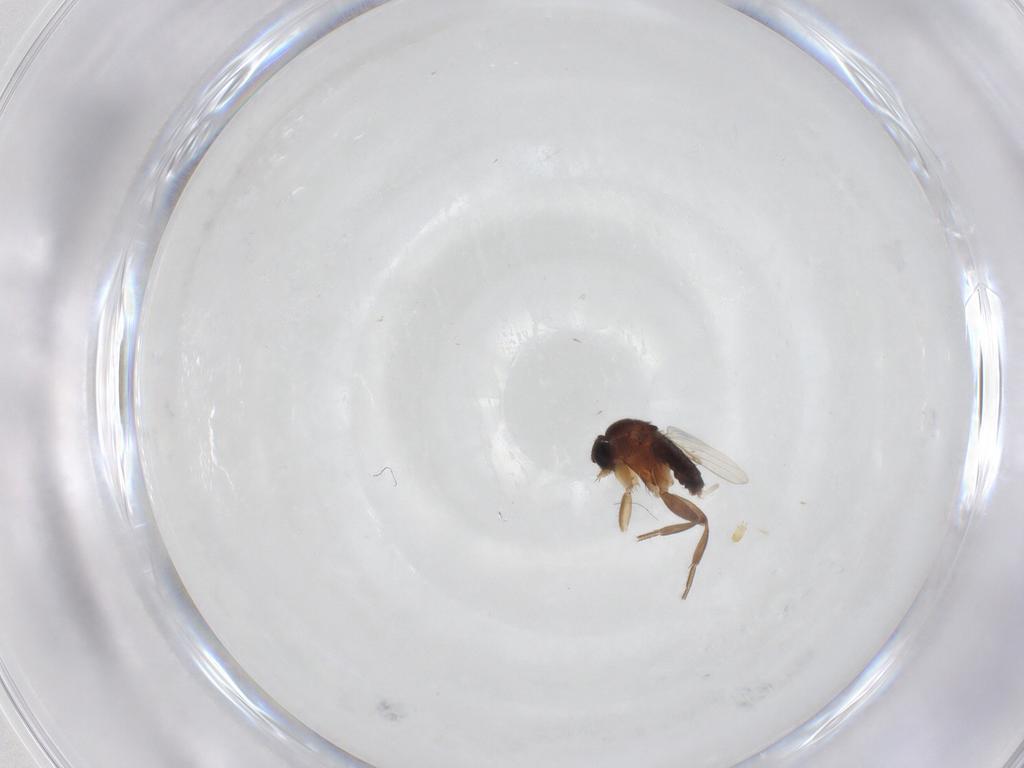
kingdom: Animalia
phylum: Arthropoda
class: Insecta
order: Diptera
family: Phoridae
